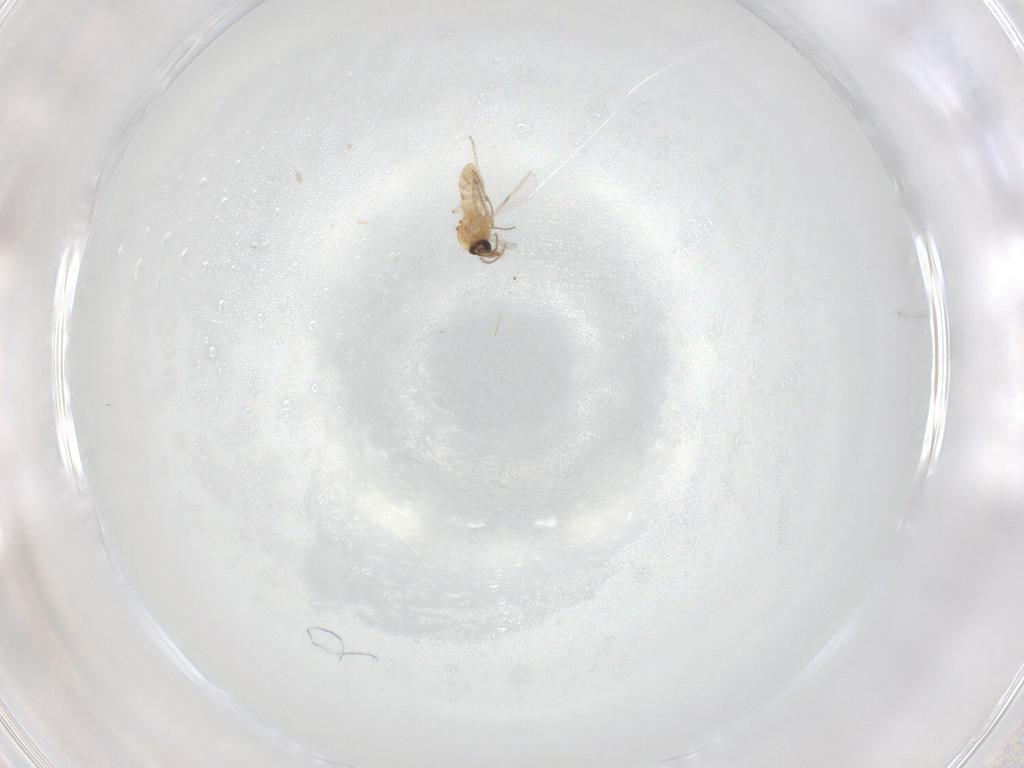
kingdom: Animalia
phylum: Arthropoda
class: Insecta
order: Diptera
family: Ceratopogonidae
